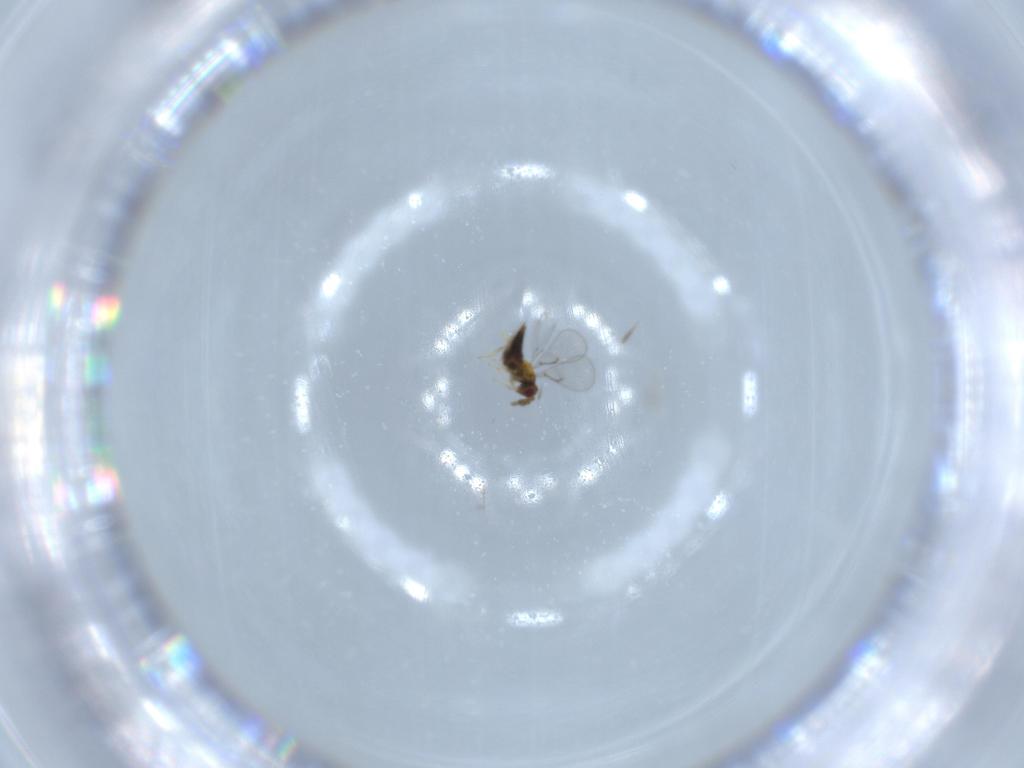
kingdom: Animalia
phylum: Arthropoda
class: Insecta
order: Hymenoptera
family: Trichogrammatidae
